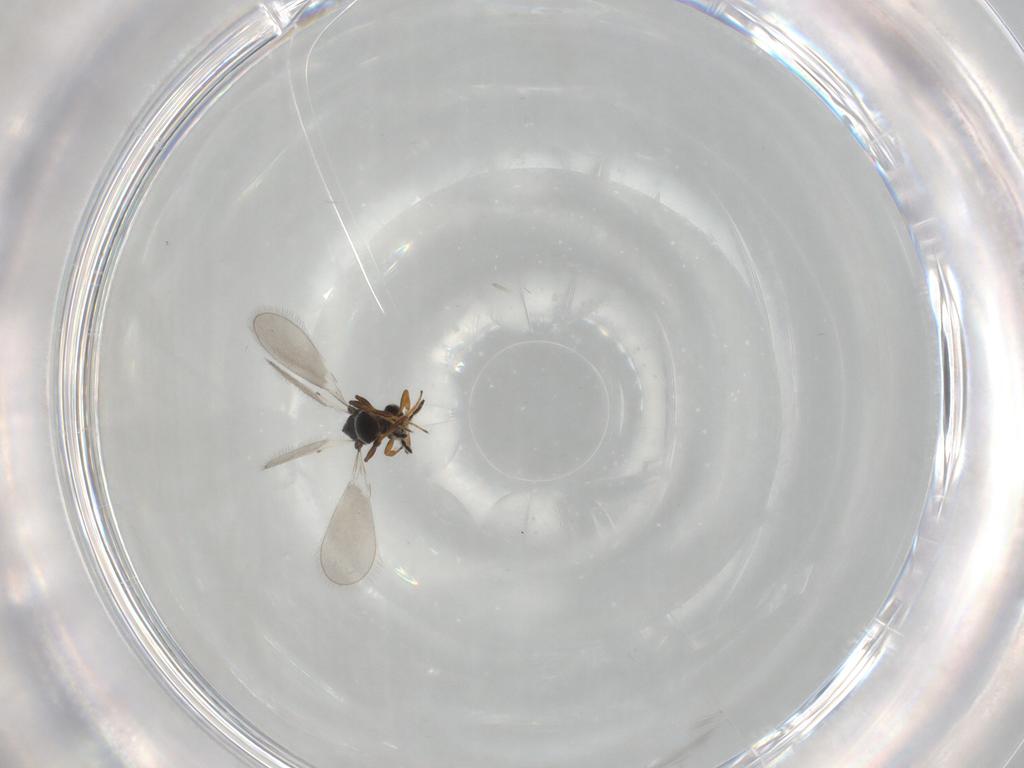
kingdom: Animalia
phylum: Arthropoda
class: Insecta
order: Hymenoptera
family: Platygastridae
